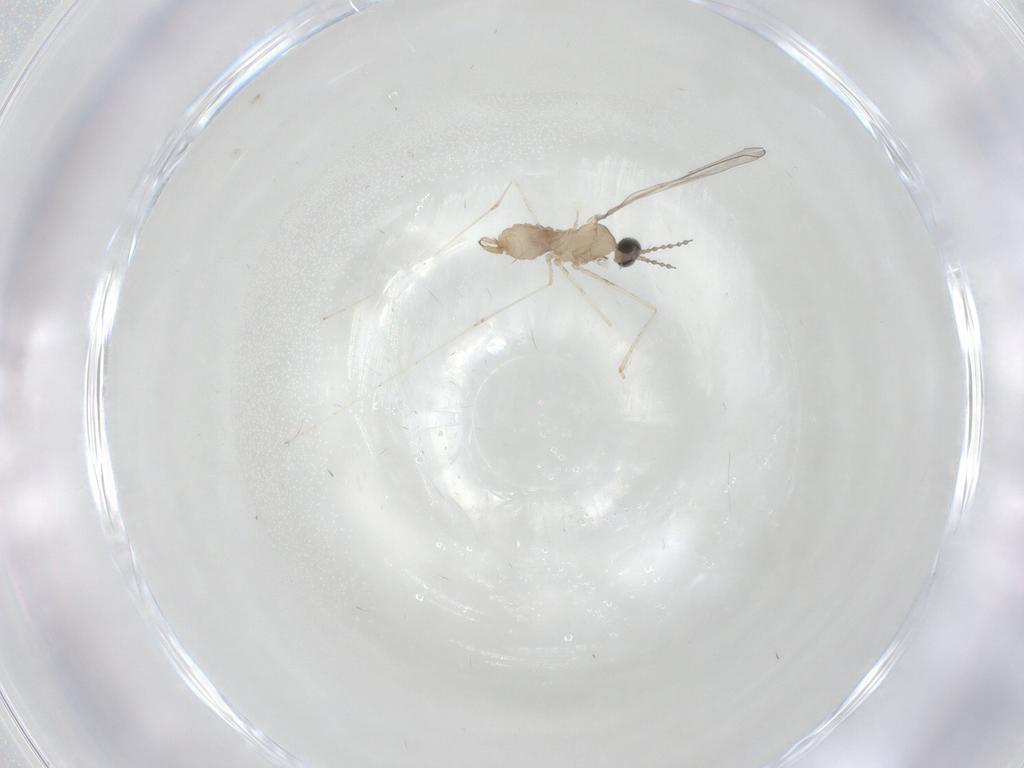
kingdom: Animalia
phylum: Arthropoda
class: Insecta
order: Diptera
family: Cecidomyiidae
